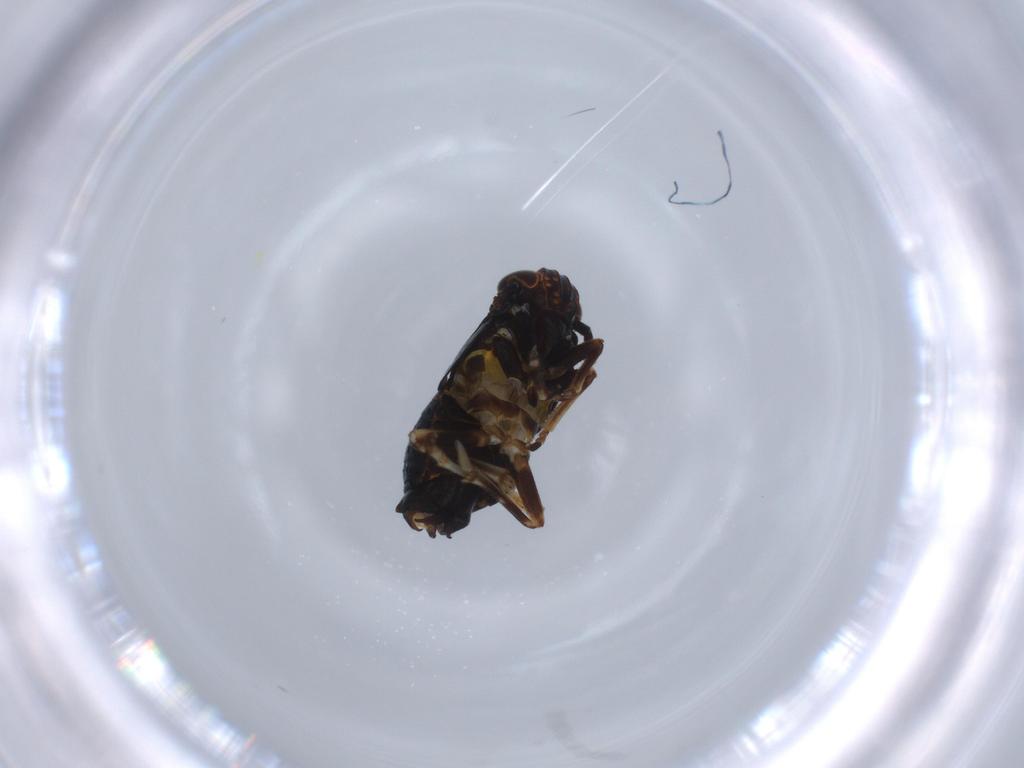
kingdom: Animalia
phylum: Arthropoda
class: Insecta
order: Hemiptera
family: Delphacidae
